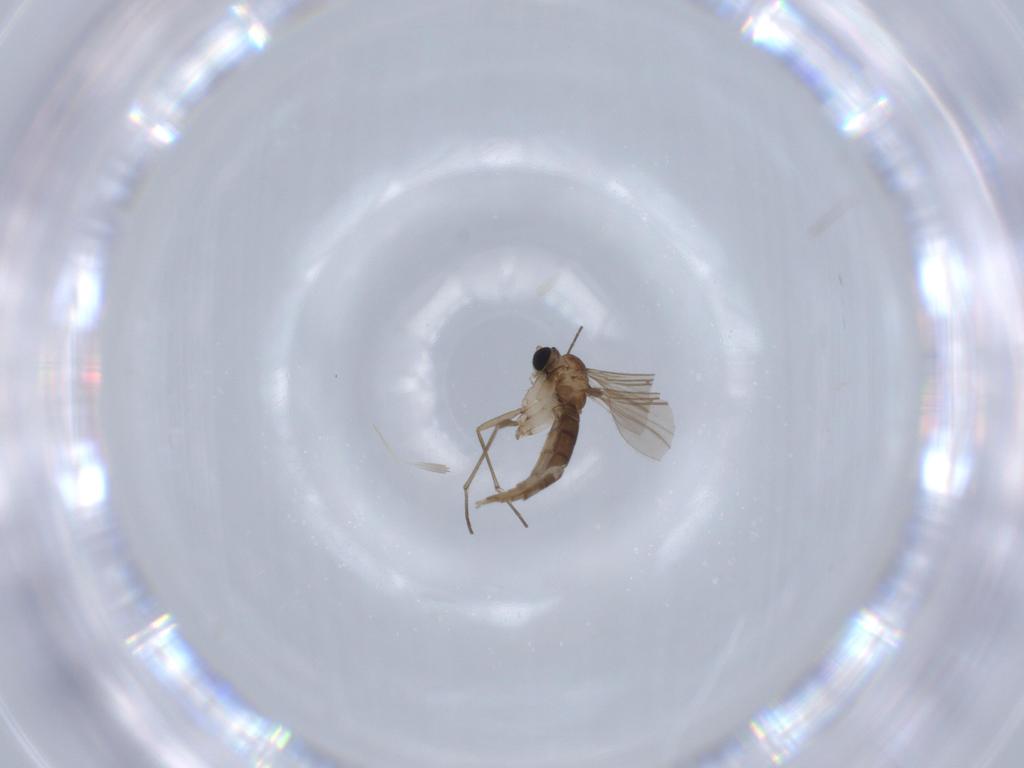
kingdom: Animalia
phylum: Arthropoda
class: Insecta
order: Diptera
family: Sciaridae
